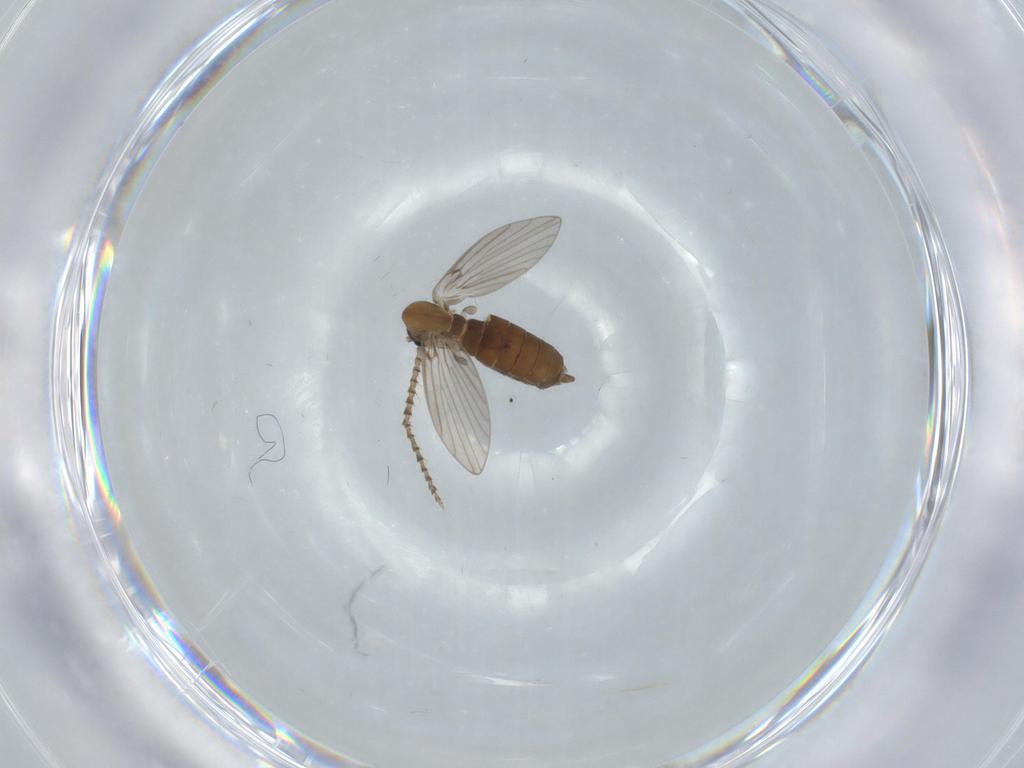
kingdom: Animalia
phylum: Arthropoda
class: Insecta
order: Diptera
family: Psychodidae
